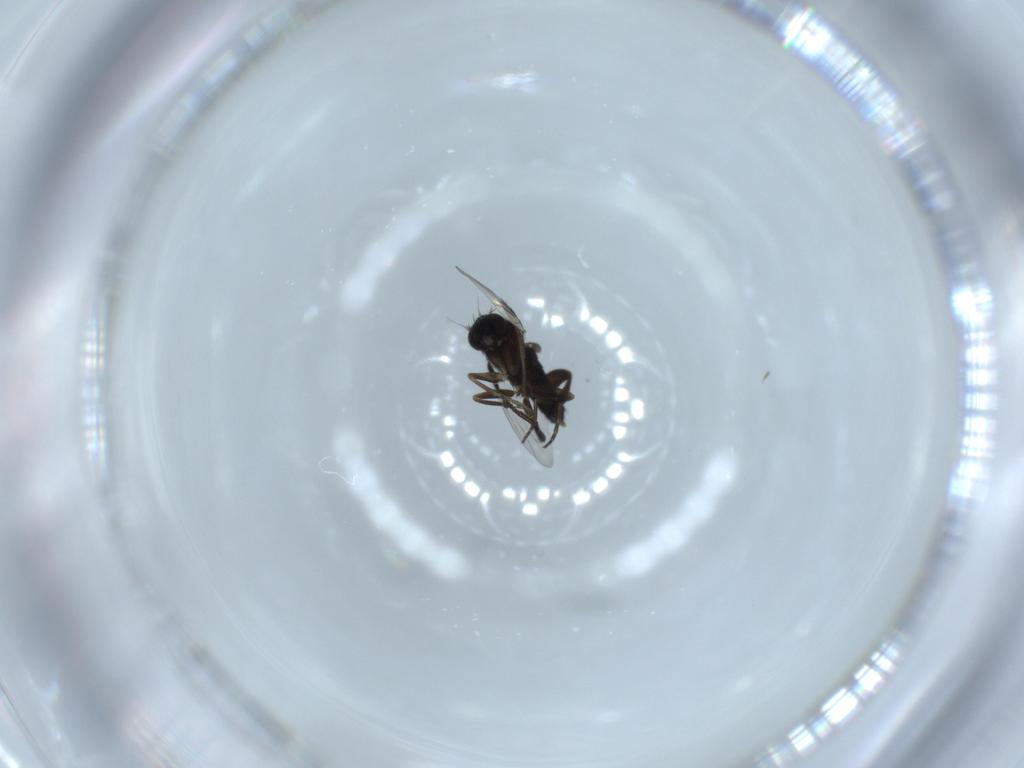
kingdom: Animalia
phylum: Arthropoda
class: Insecta
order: Diptera
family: Phoridae
